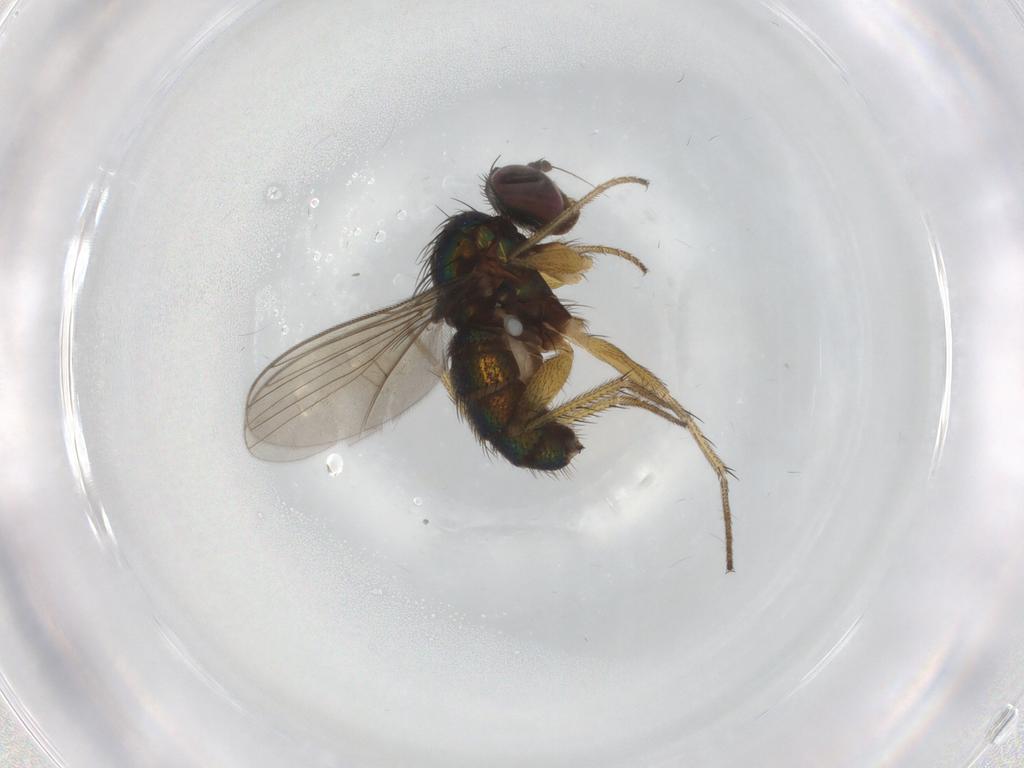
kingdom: Animalia
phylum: Arthropoda
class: Insecta
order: Diptera
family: Dolichopodidae
